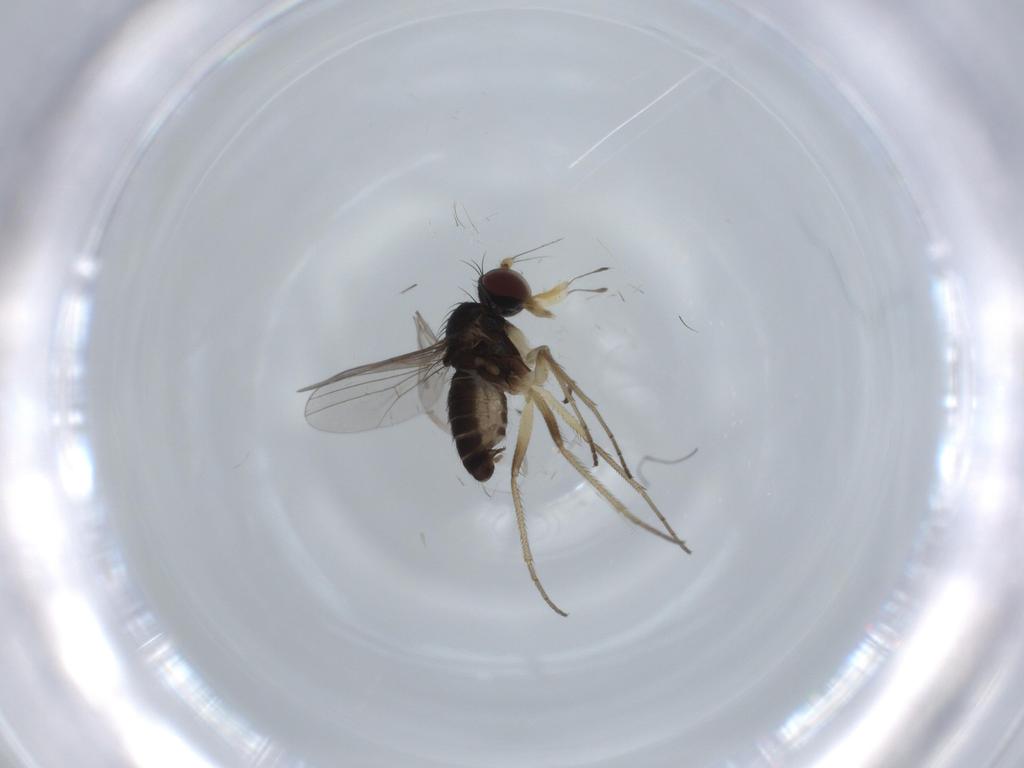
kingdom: Animalia
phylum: Arthropoda
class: Insecta
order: Diptera
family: Dolichopodidae
